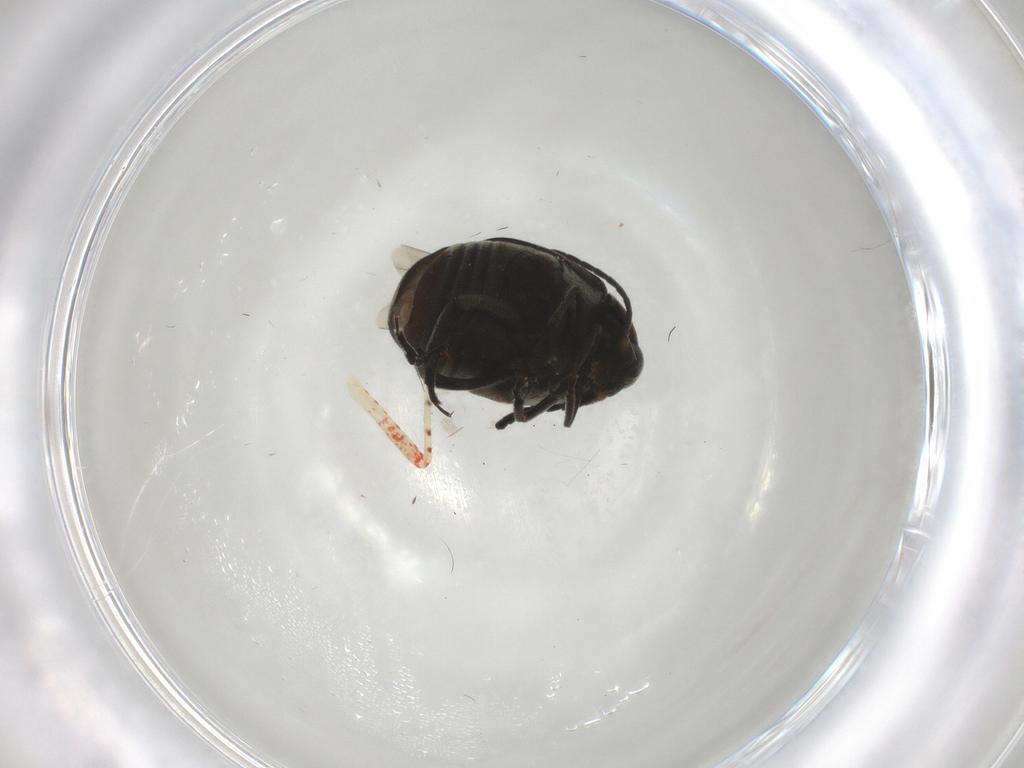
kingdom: Animalia
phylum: Arthropoda
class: Insecta
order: Coleoptera
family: Chrysomelidae
